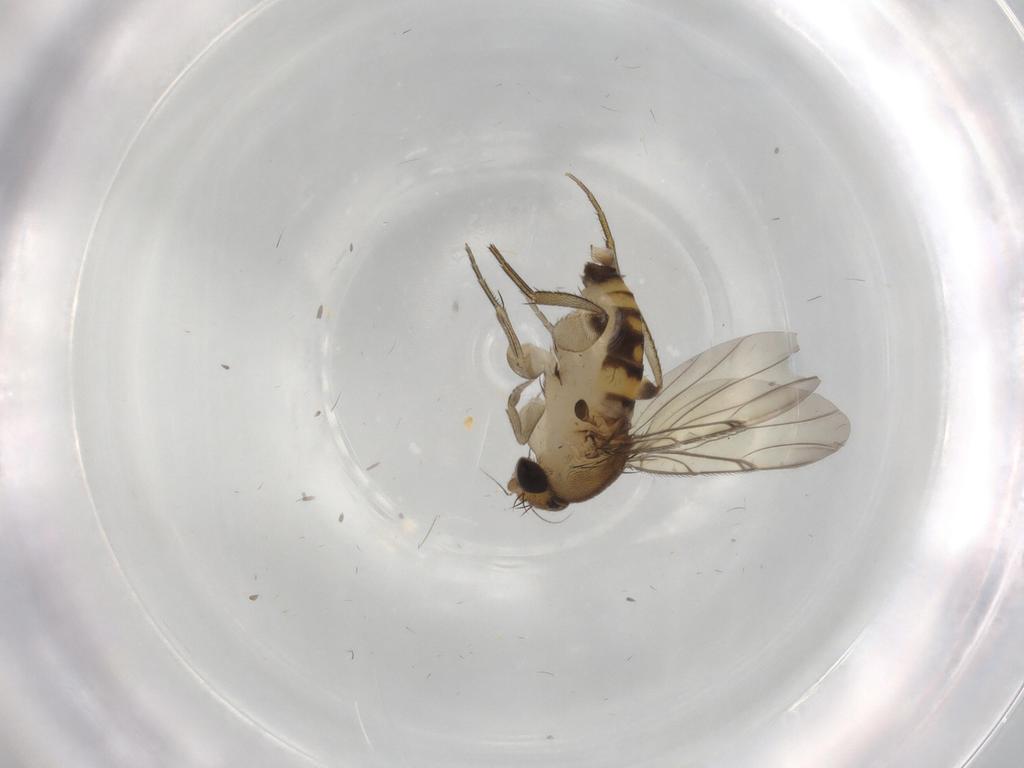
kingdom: Animalia
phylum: Arthropoda
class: Insecta
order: Diptera
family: Phoridae
